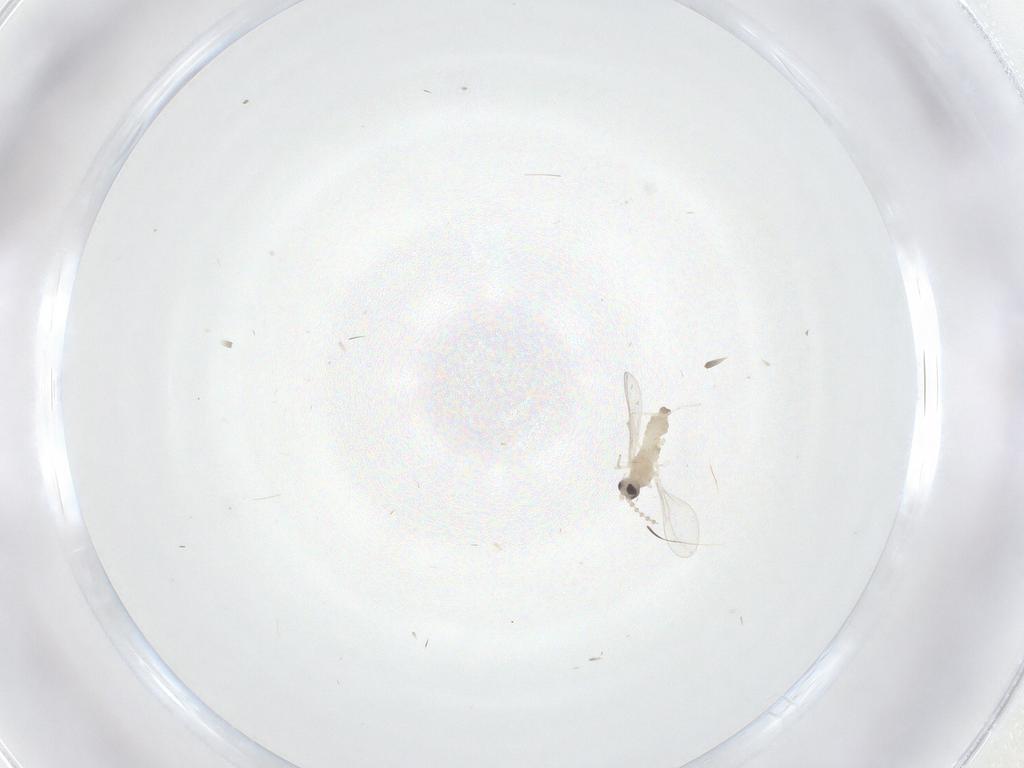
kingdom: Animalia
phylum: Arthropoda
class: Insecta
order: Diptera
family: Cecidomyiidae
